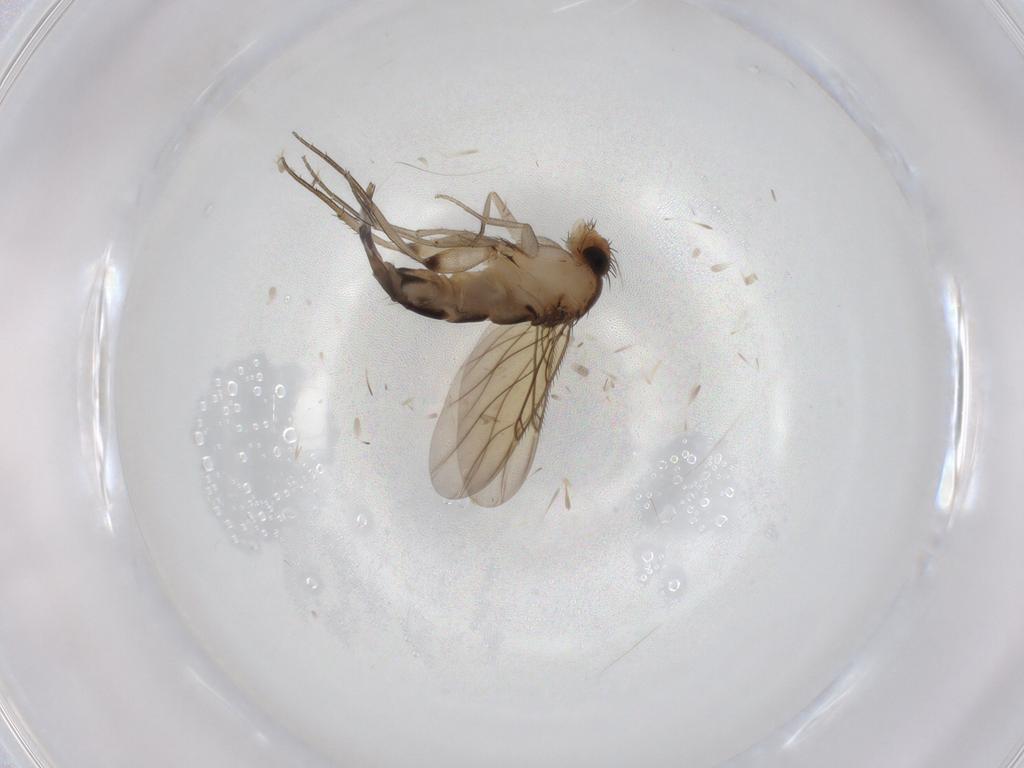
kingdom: Animalia
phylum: Arthropoda
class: Insecta
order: Diptera
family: Phoridae
